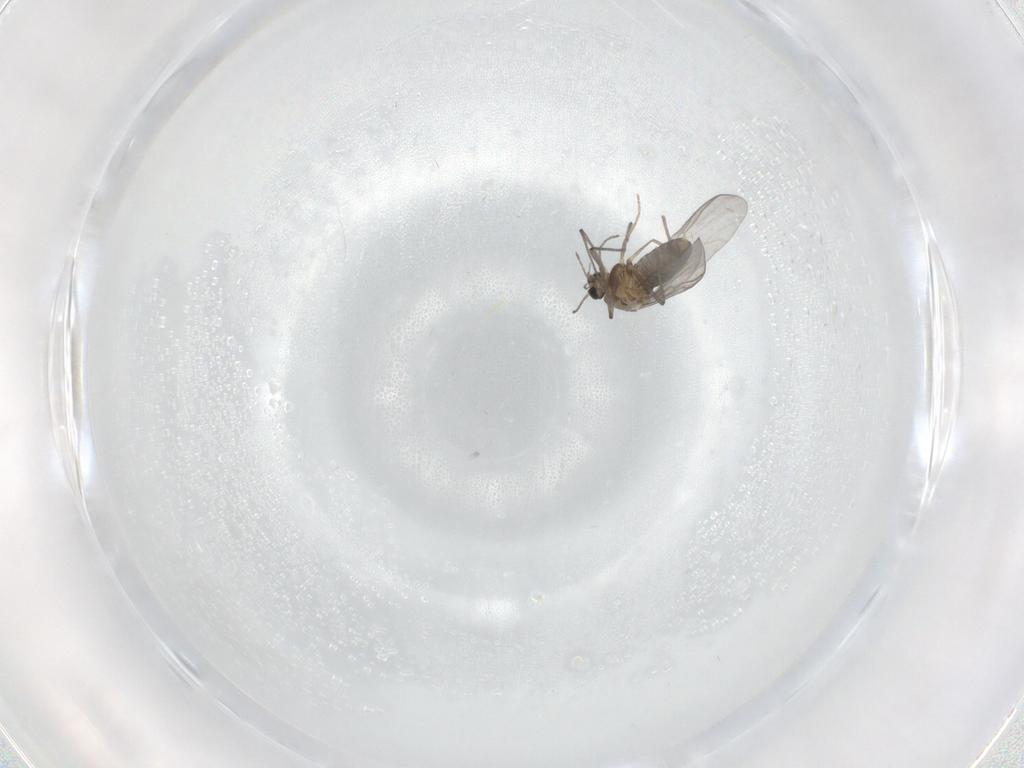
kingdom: Animalia
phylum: Arthropoda
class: Insecta
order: Diptera
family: Chironomidae
